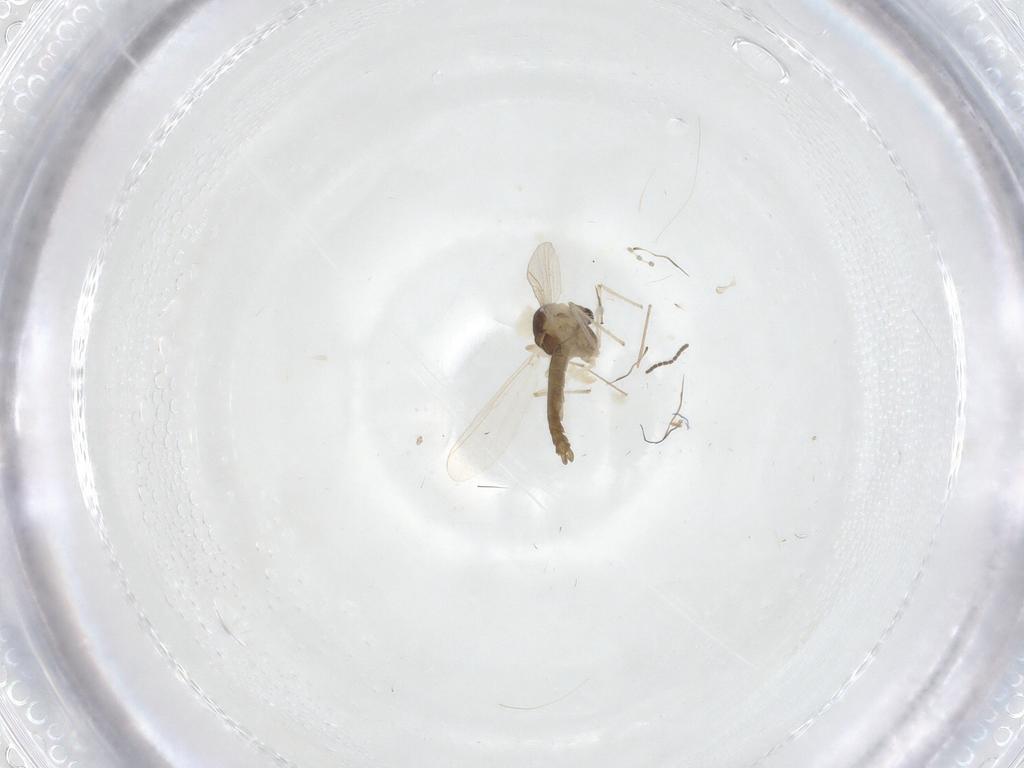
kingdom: Animalia
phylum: Arthropoda
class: Insecta
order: Diptera
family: Chironomidae
